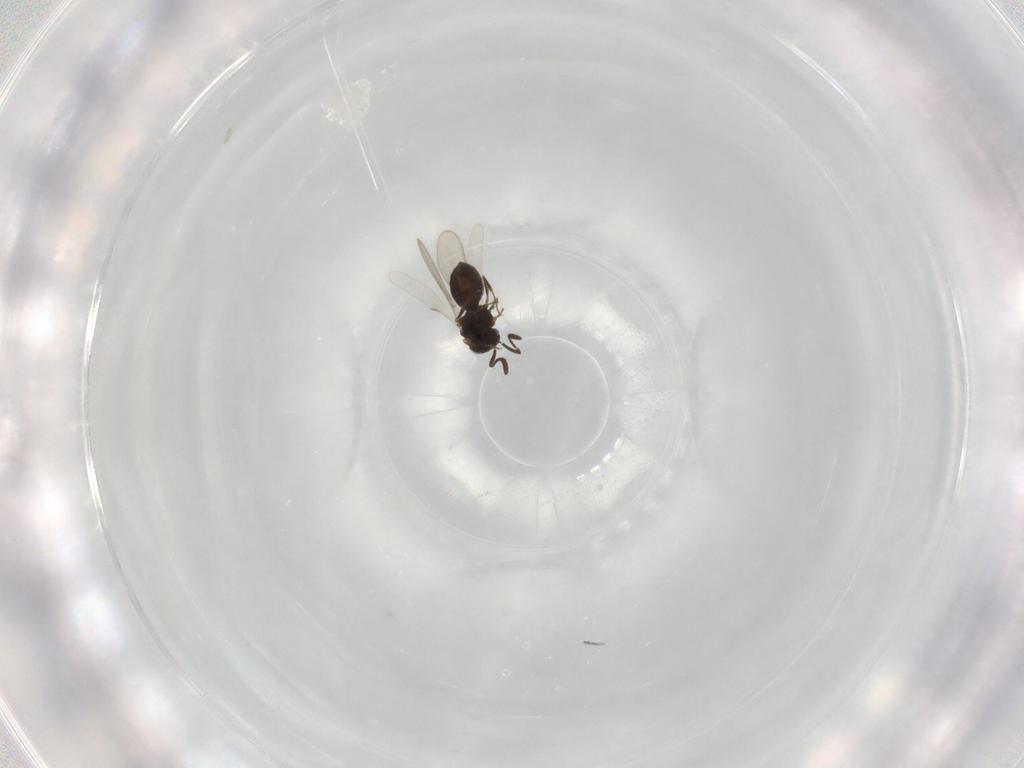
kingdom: Animalia
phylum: Arthropoda
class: Insecta
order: Hymenoptera
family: Scelionidae
